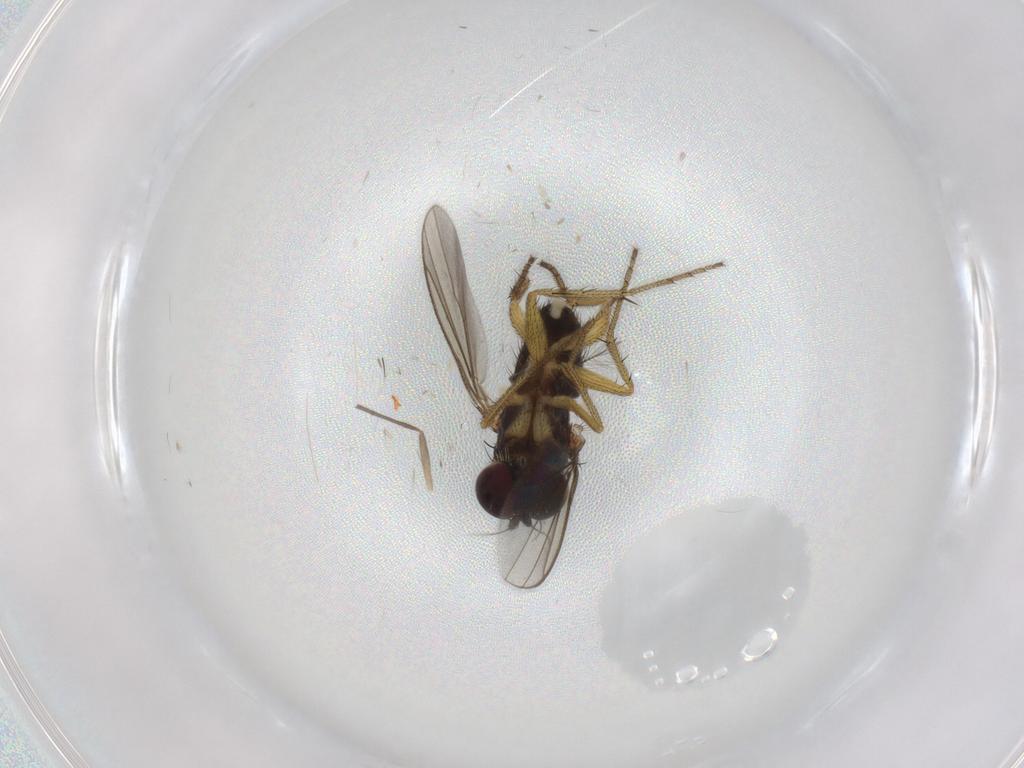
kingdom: Animalia
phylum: Arthropoda
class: Insecta
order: Diptera
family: Chironomidae
